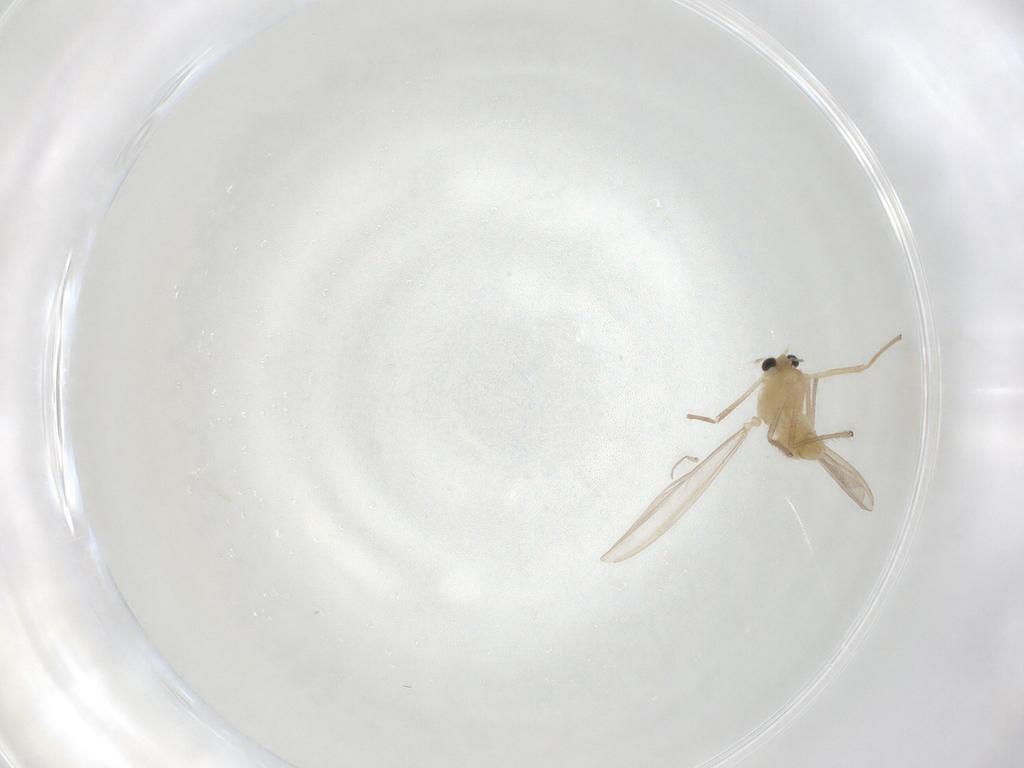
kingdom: Animalia
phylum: Arthropoda
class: Insecta
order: Diptera
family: Chironomidae
